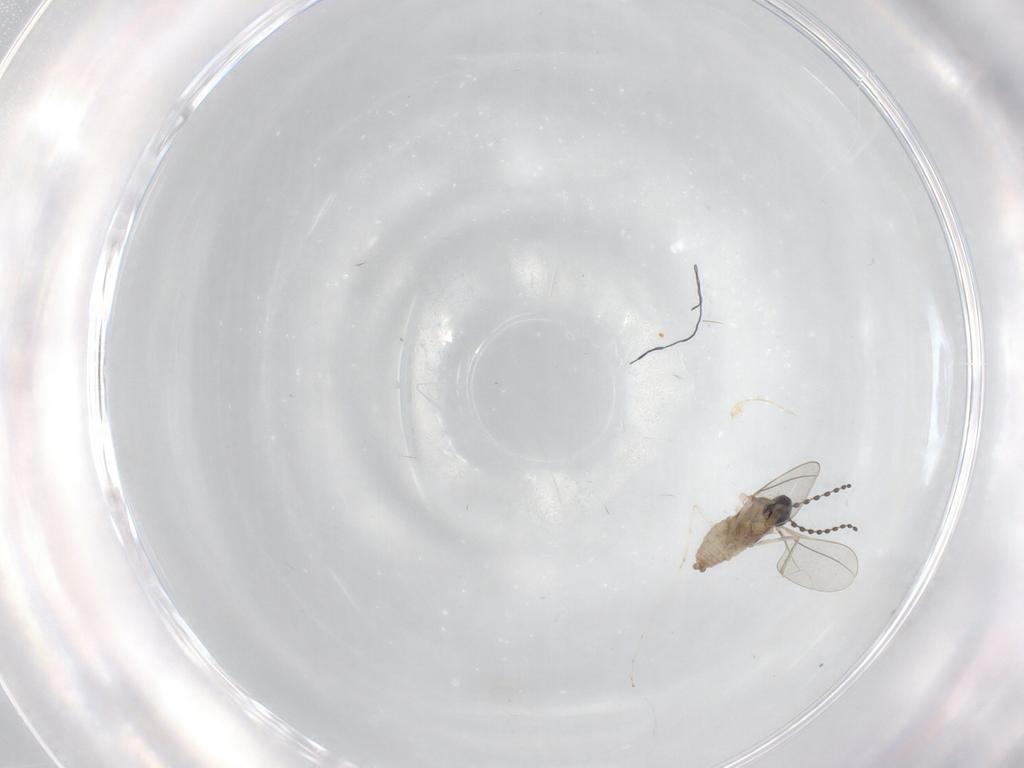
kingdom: Animalia
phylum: Arthropoda
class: Insecta
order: Diptera
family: Cecidomyiidae
